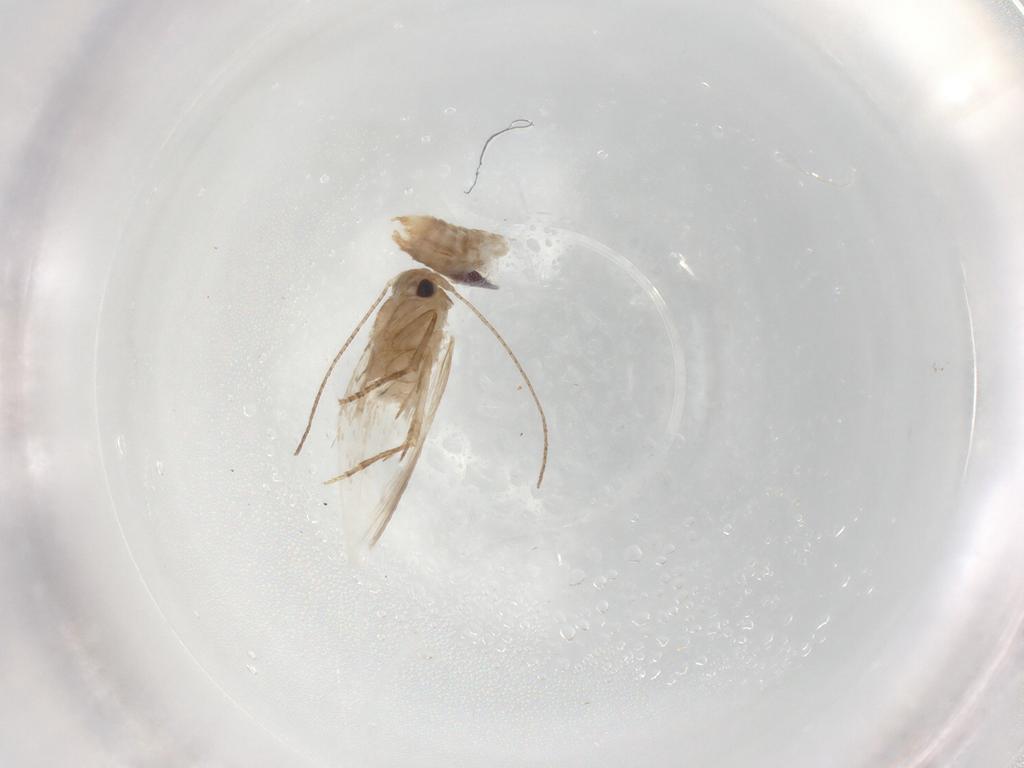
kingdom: Animalia
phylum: Arthropoda
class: Insecta
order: Lepidoptera
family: Bucculatricidae
